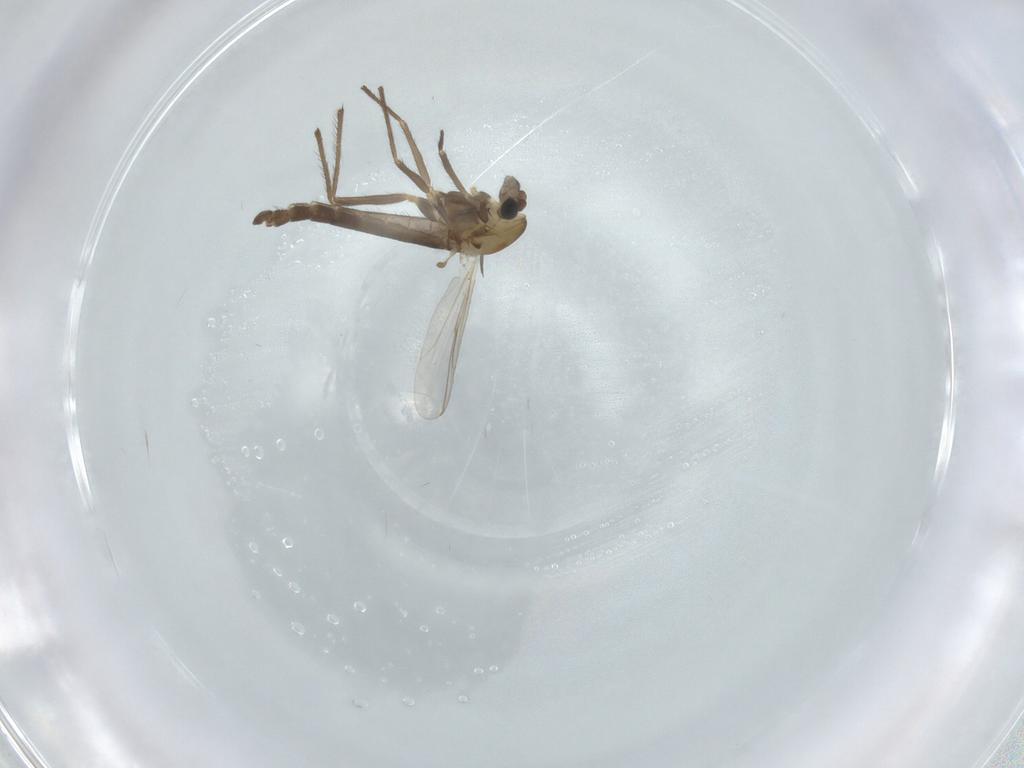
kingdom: Animalia
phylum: Arthropoda
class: Insecta
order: Diptera
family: Chironomidae
